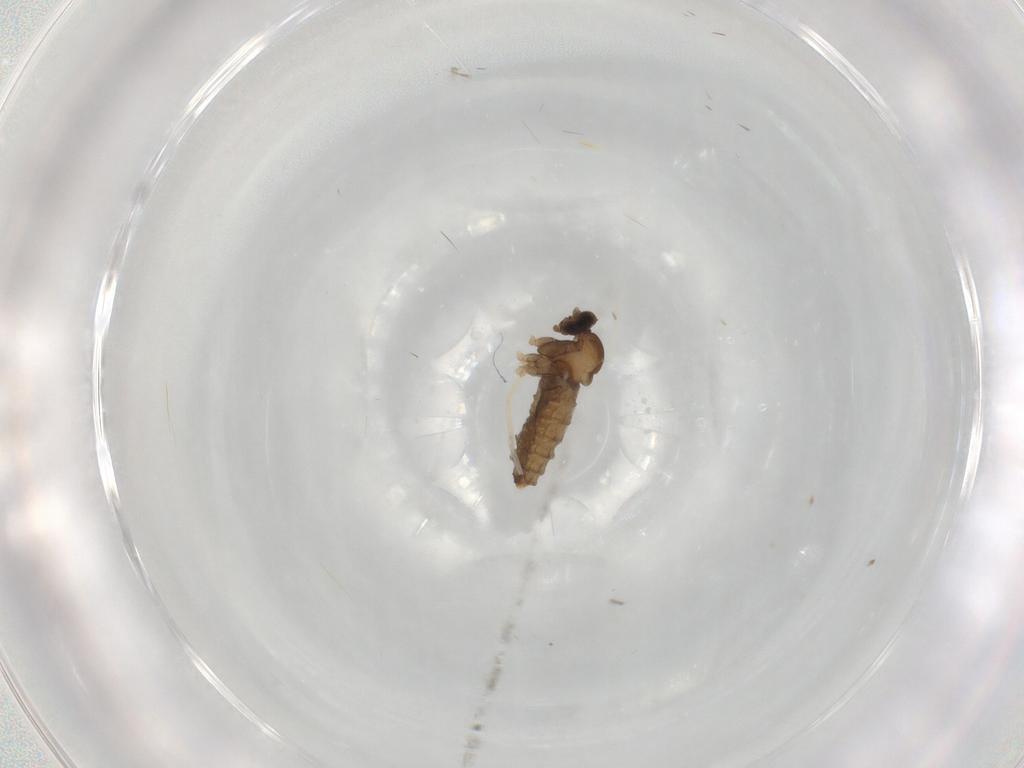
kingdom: Animalia
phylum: Arthropoda
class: Insecta
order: Diptera
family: Cecidomyiidae
